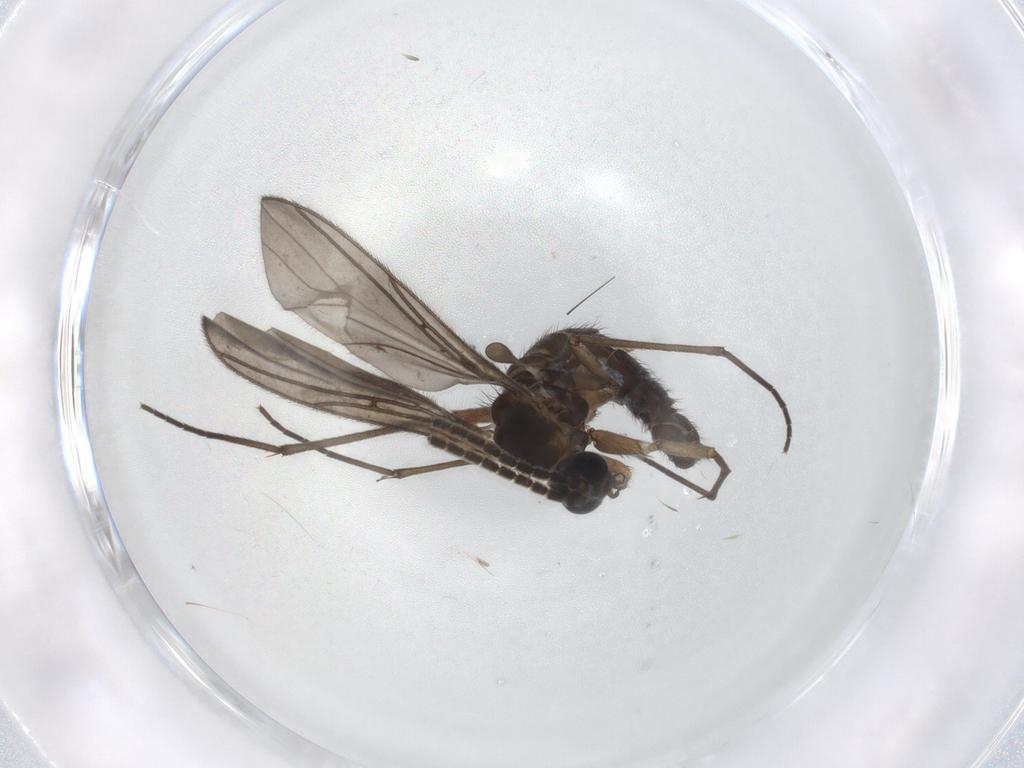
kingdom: Animalia
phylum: Arthropoda
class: Insecta
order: Diptera
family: Sciaridae
